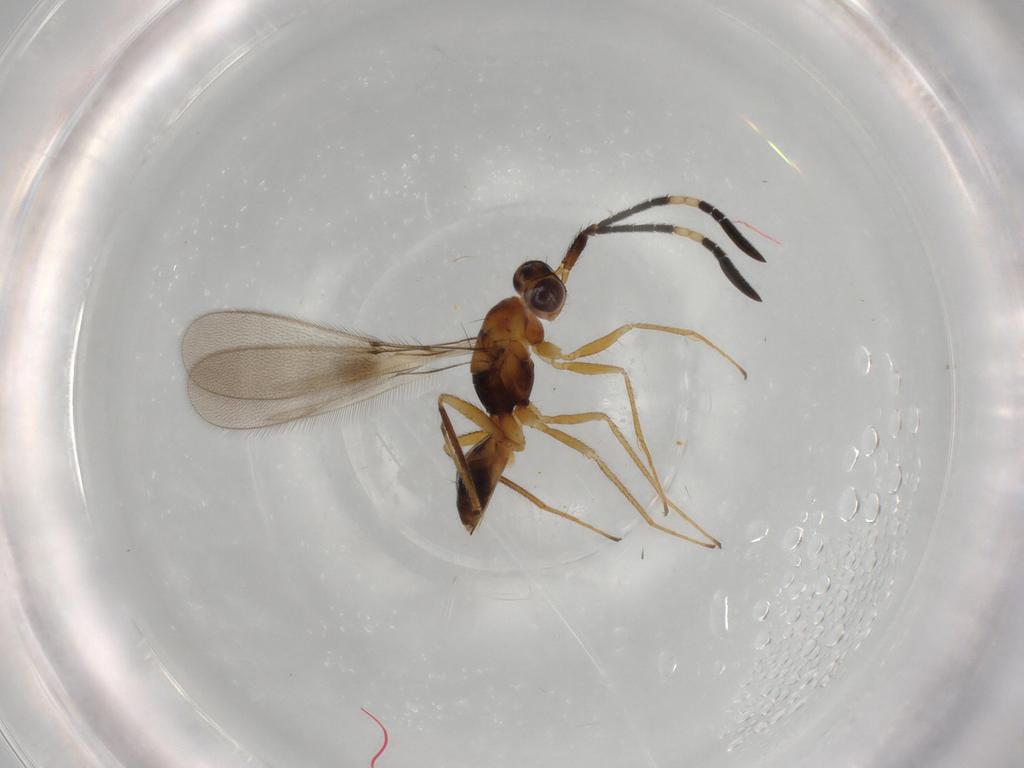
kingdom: Animalia
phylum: Arthropoda
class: Insecta
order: Hymenoptera
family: Mymaridae
